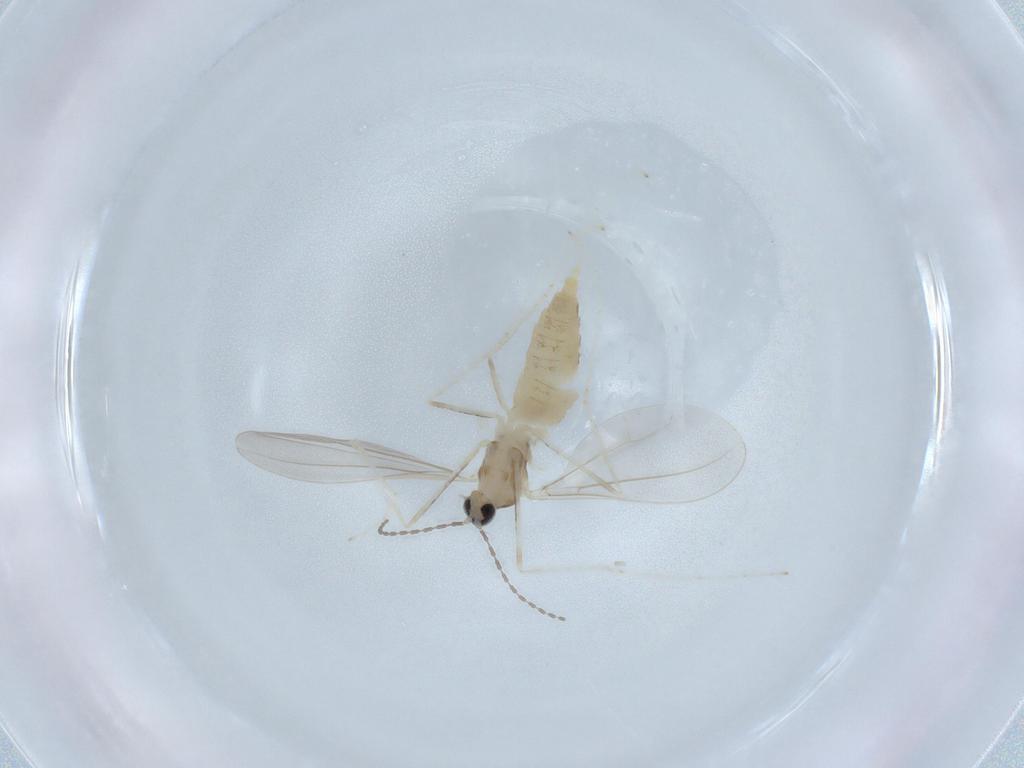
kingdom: Animalia
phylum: Arthropoda
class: Insecta
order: Diptera
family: Cecidomyiidae
